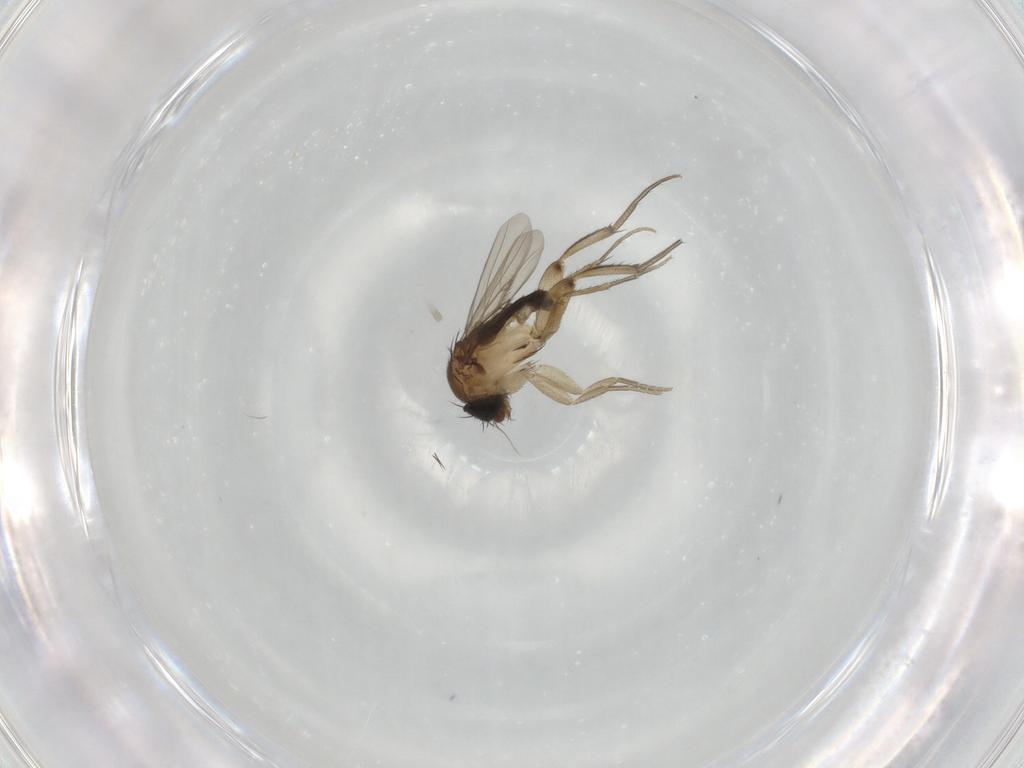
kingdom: Animalia
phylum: Arthropoda
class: Insecta
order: Diptera
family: Phoridae
